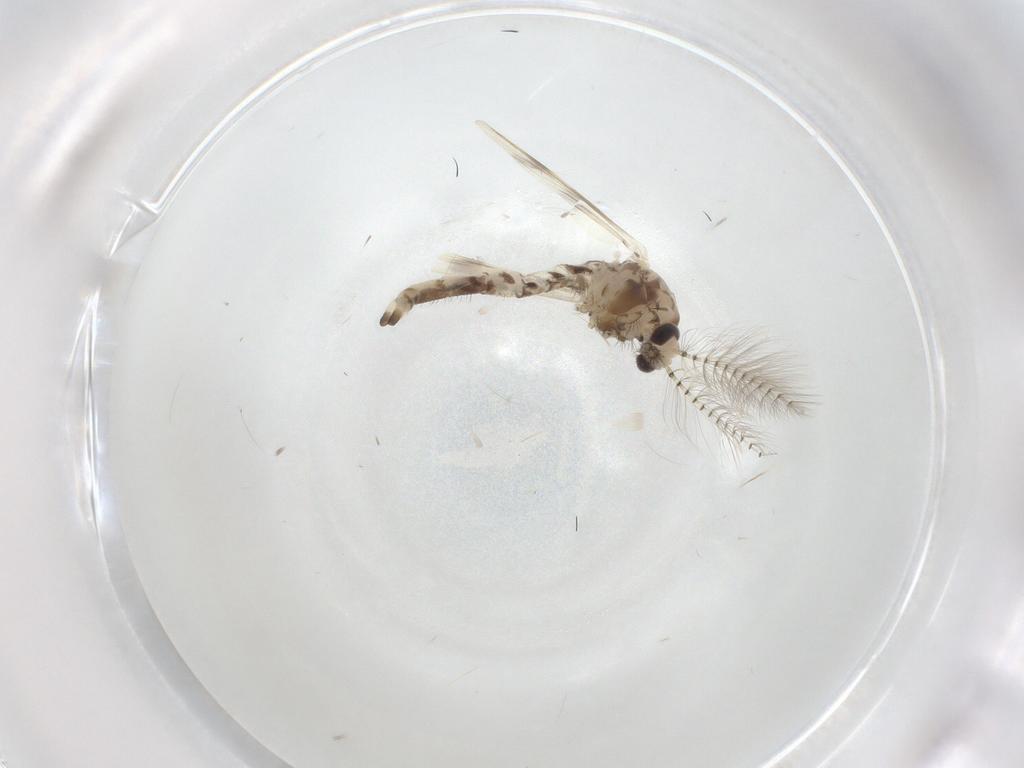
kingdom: Animalia
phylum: Arthropoda
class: Insecta
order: Diptera
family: Chaoboridae
